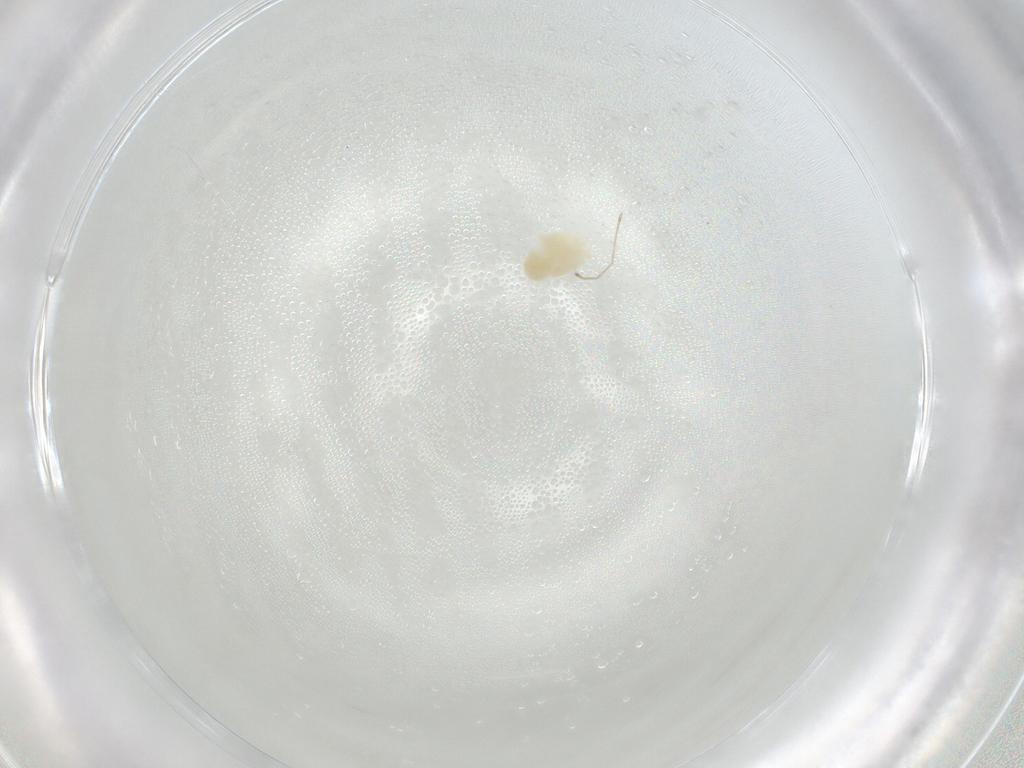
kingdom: Animalia
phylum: Arthropoda
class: Arachnida
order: Trombidiformes
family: Microtrombidiidae
